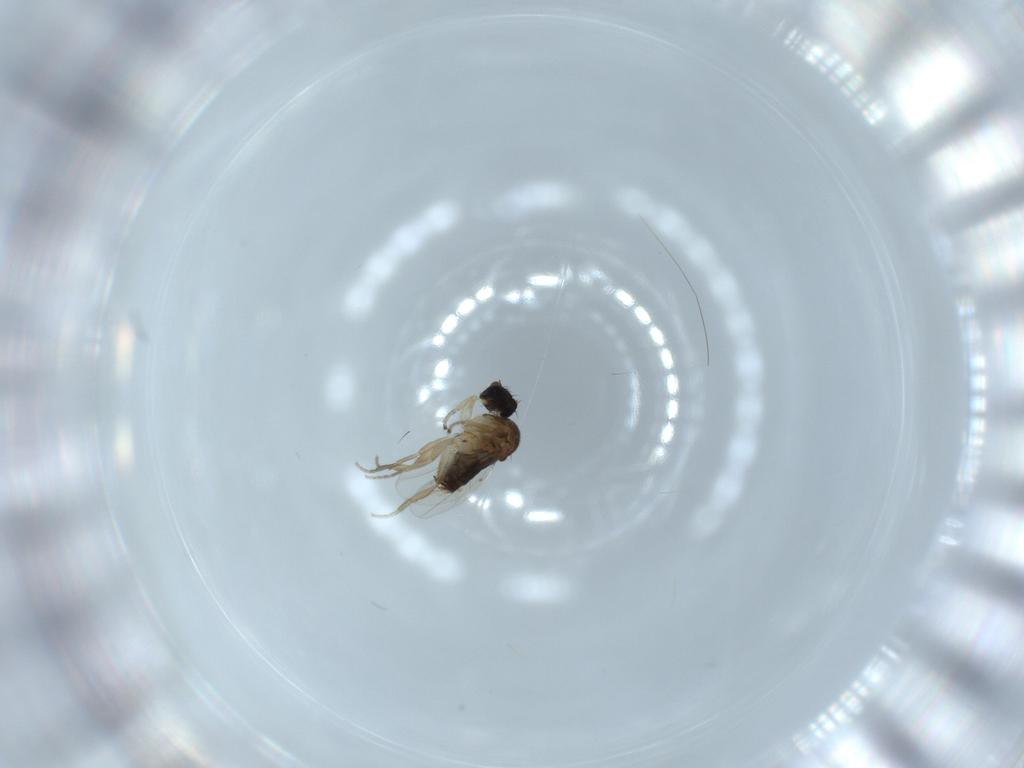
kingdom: Animalia
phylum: Arthropoda
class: Insecta
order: Diptera
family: Phoridae
